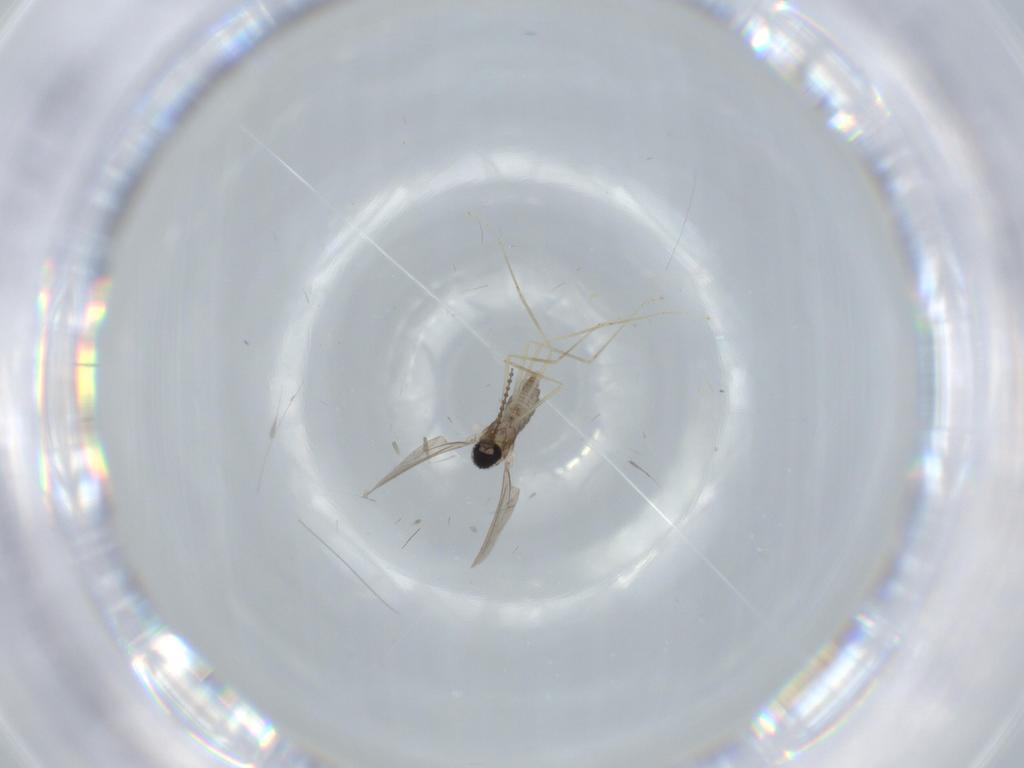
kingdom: Animalia
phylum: Arthropoda
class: Insecta
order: Diptera
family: Cecidomyiidae
